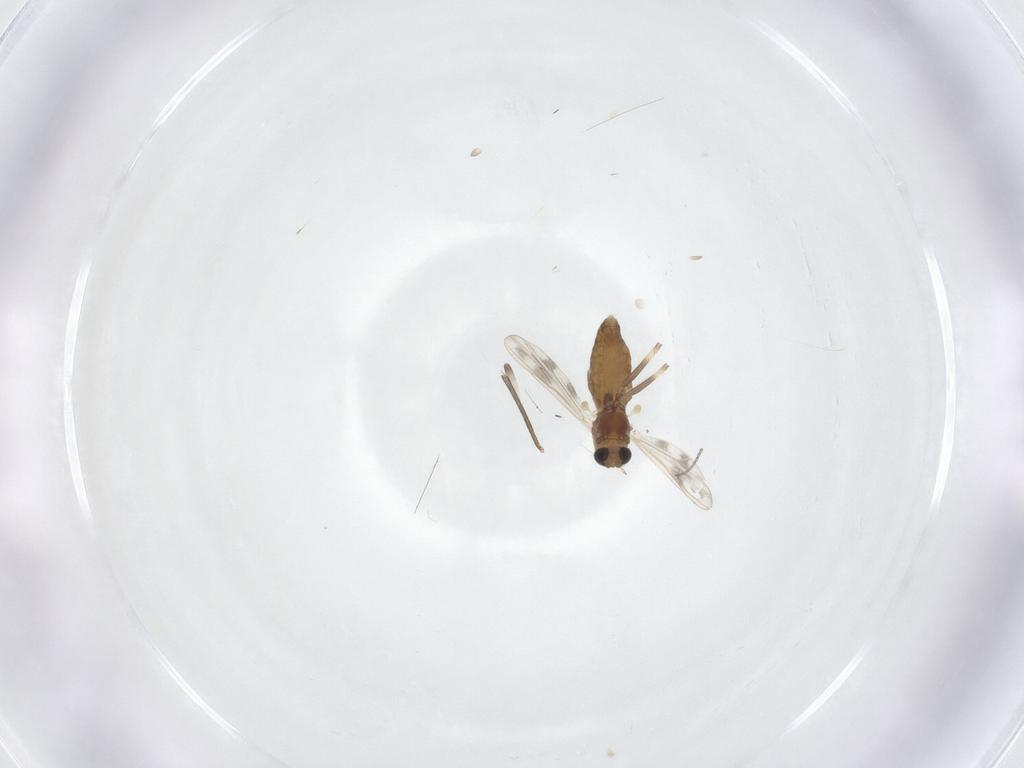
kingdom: Animalia
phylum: Arthropoda
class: Insecta
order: Diptera
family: Chironomidae
